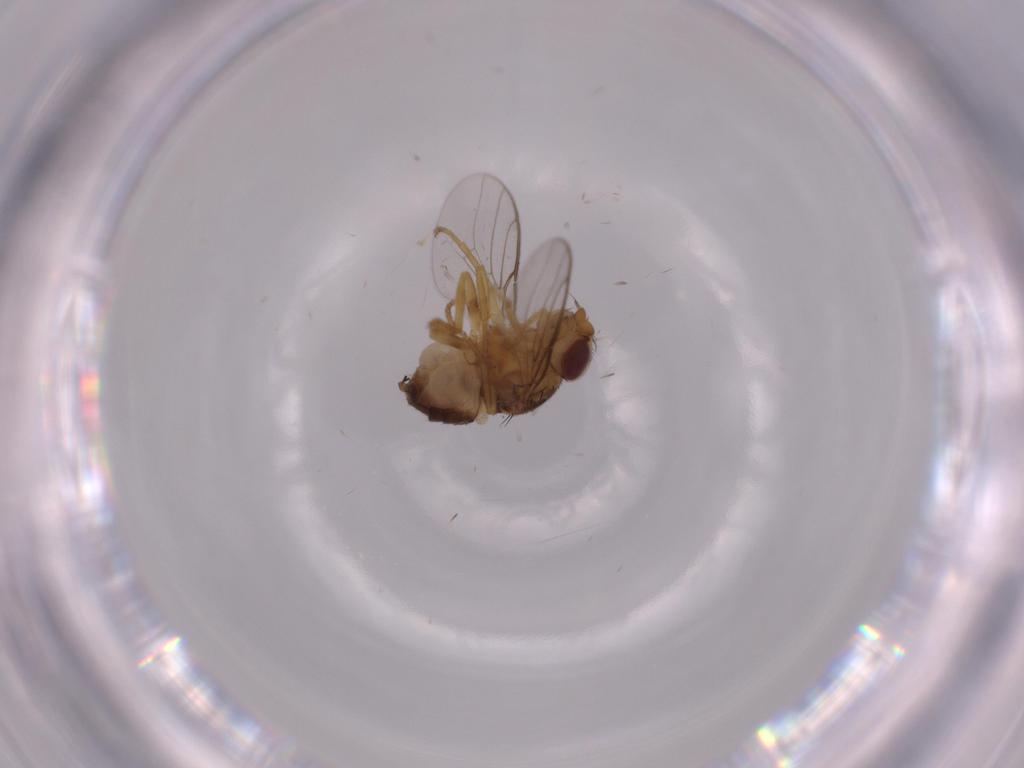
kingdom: Animalia
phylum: Arthropoda
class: Insecta
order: Diptera
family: Chloropidae
